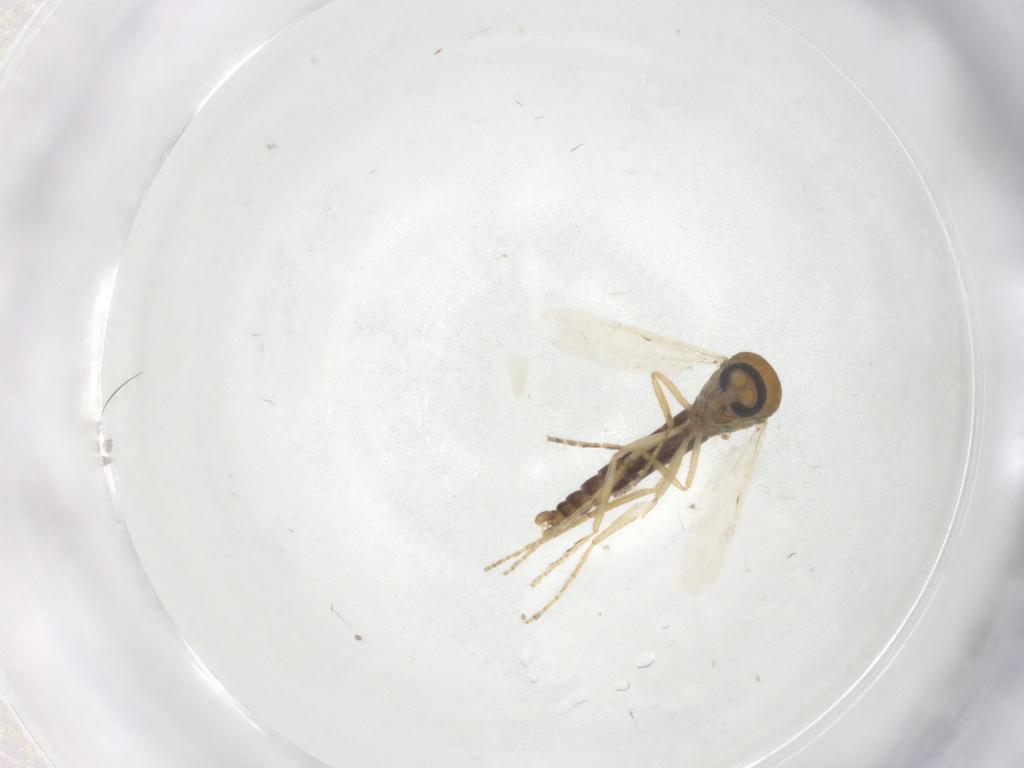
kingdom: Animalia
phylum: Arthropoda
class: Insecta
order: Diptera
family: Ceratopogonidae
